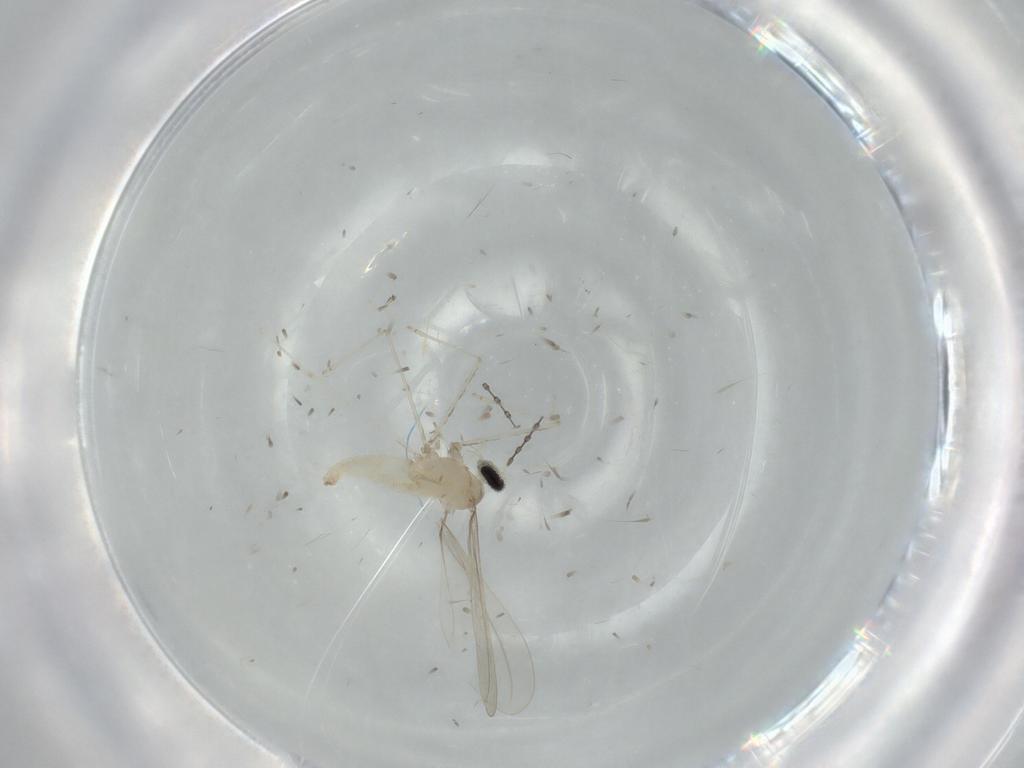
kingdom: Animalia
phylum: Arthropoda
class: Insecta
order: Diptera
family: Cecidomyiidae
